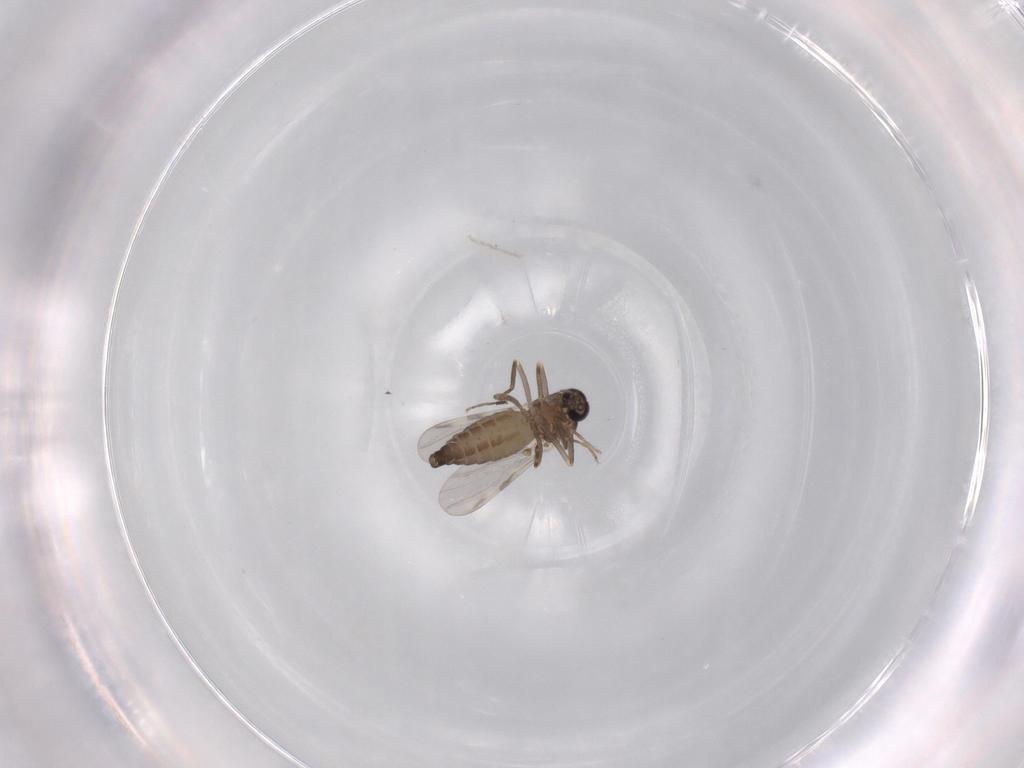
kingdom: Animalia
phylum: Arthropoda
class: Insecta
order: Diptera
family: Ceratopogonidae
